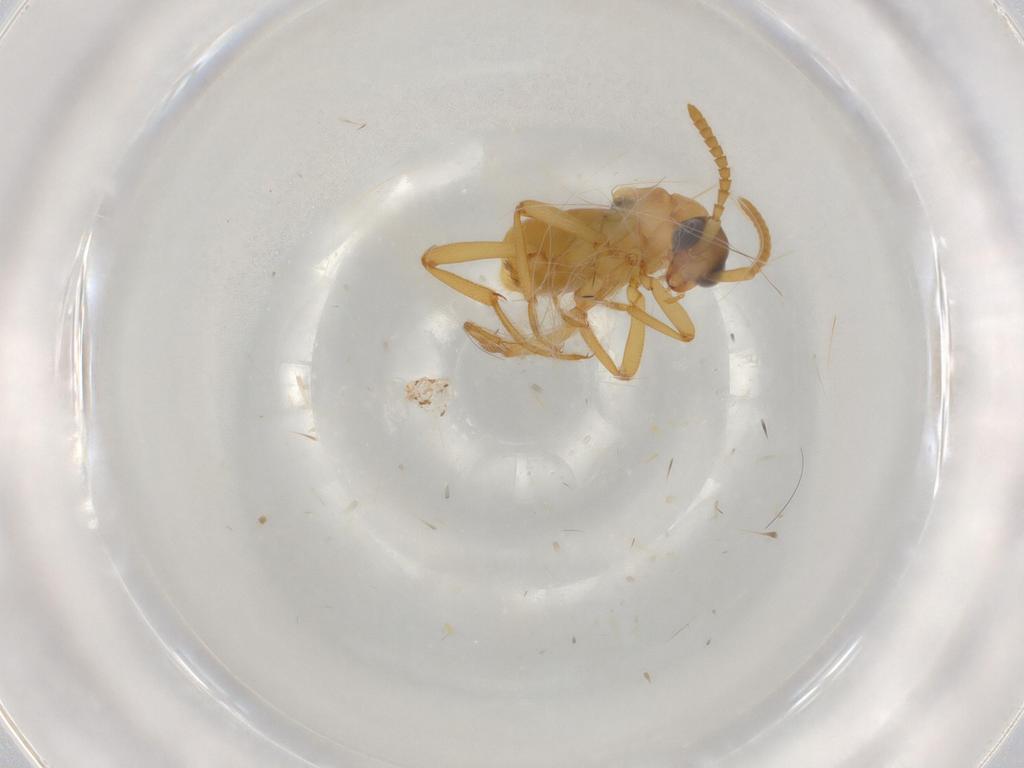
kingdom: Animalia
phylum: Arthropoda
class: Insecta
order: Coleoptera
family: Staphylinidae
